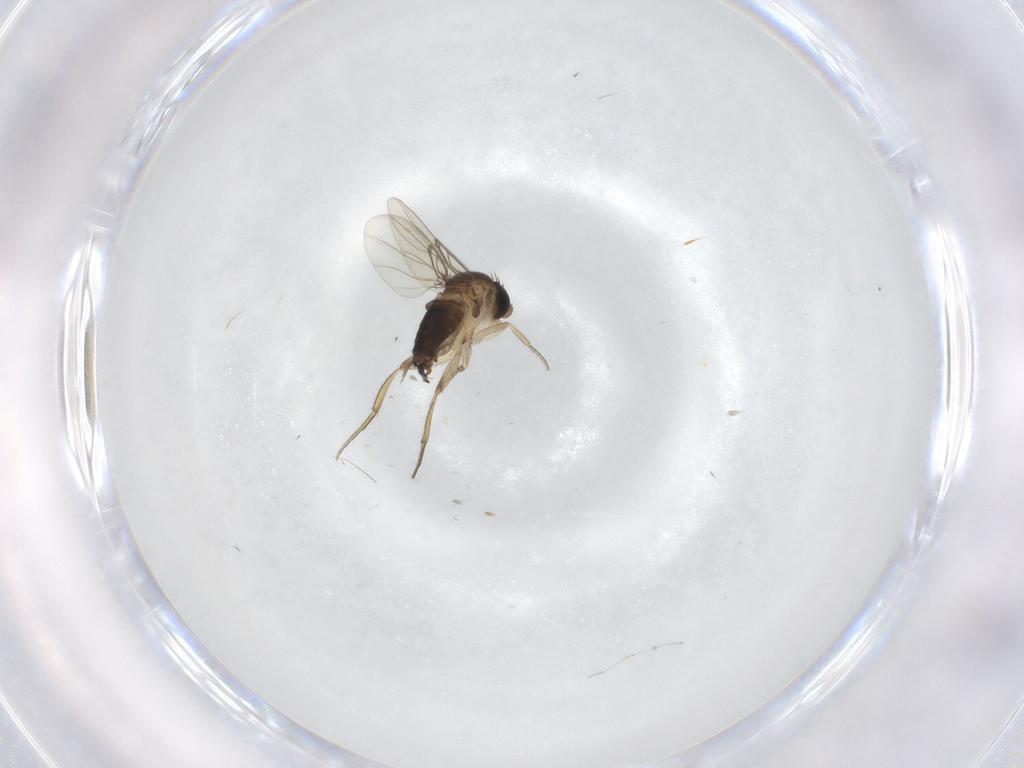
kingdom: Animalia
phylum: Arthropoda
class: Insecta
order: Diptera
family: Cecidomyiidae
